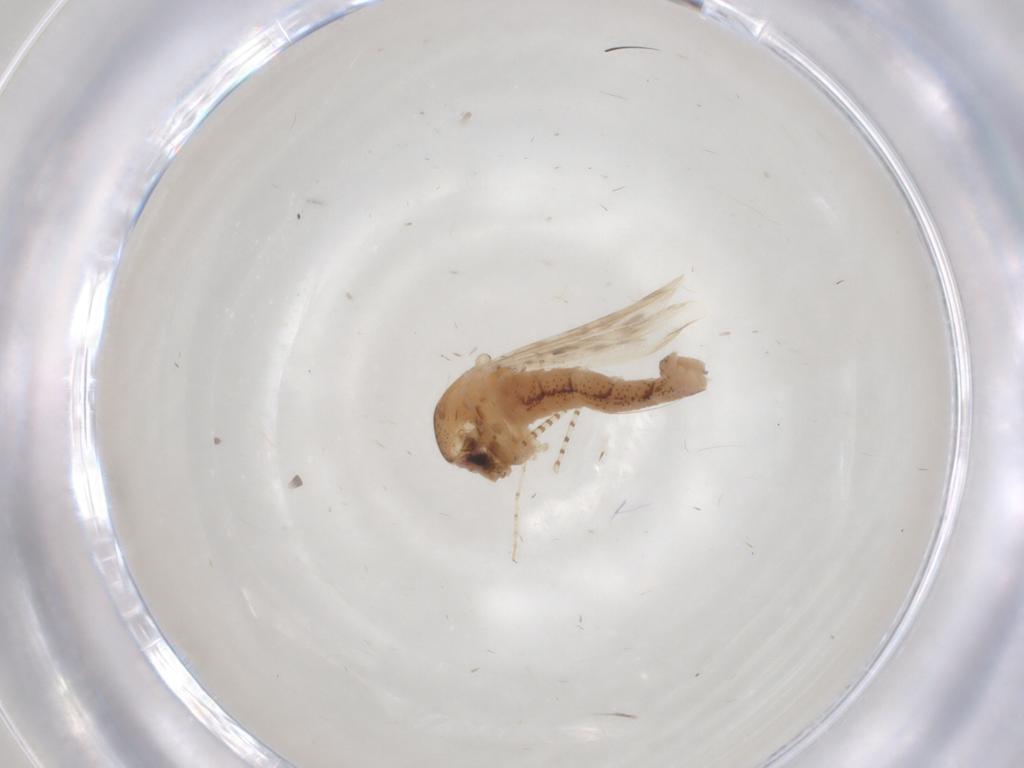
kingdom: Animalia
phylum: Arthropoda
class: Insecta
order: Diptera
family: Chaoboridae
